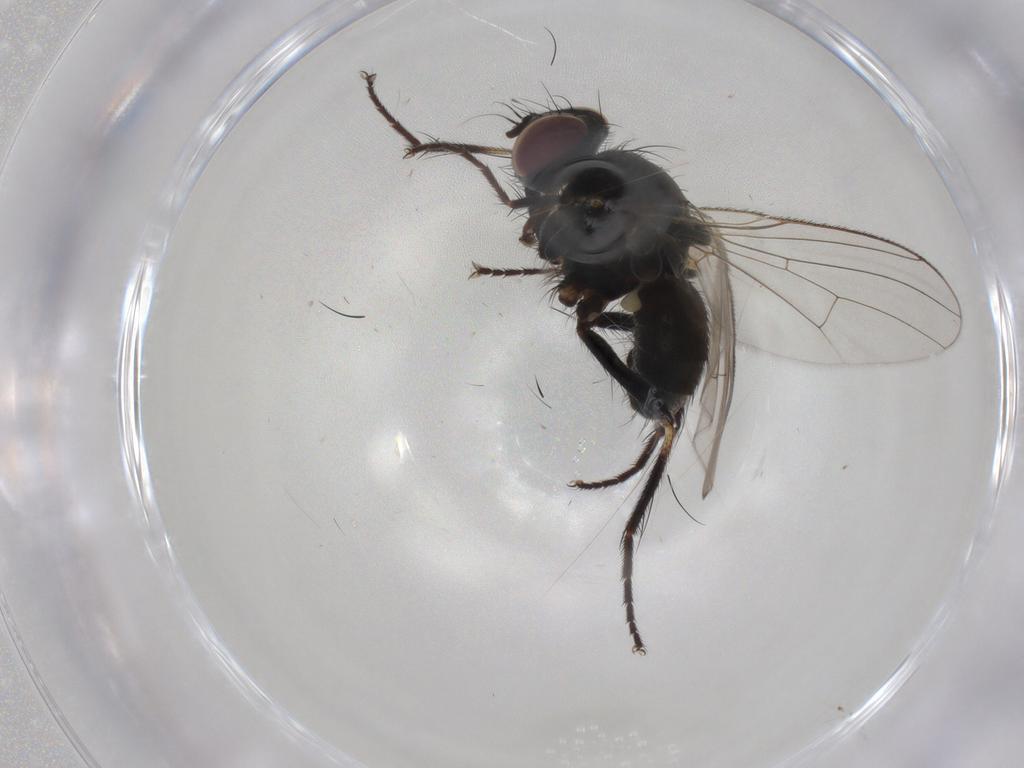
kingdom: Animalia
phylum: Arthropoda
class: Insecta
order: Diptera
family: Muscidae
